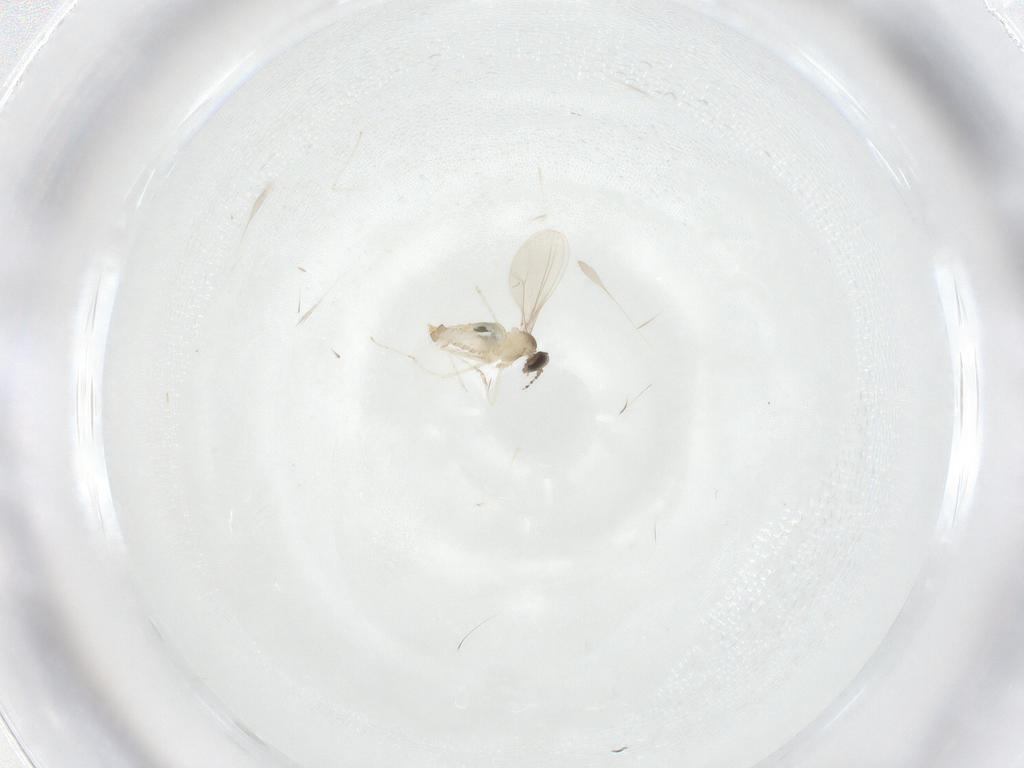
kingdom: Animalia
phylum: Arthropoda
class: Insecta
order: Diptera
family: Cecidomyiidae
